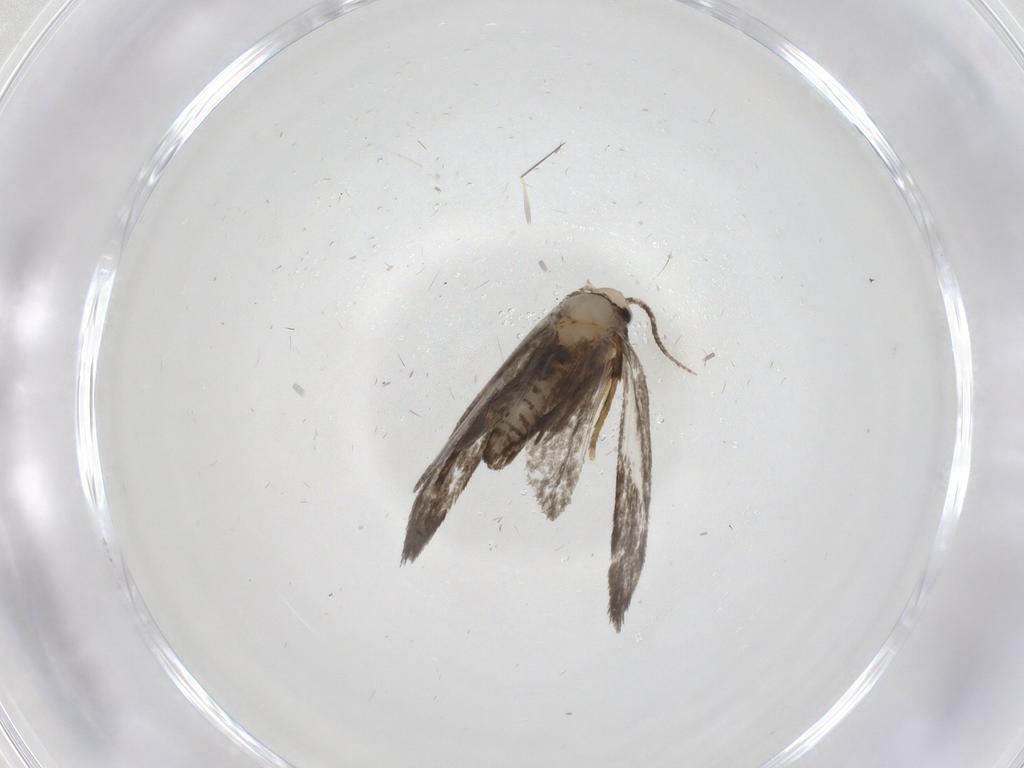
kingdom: Animalia
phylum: Arthropoda
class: Insecta
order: Lepidoptera
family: Psychidae
